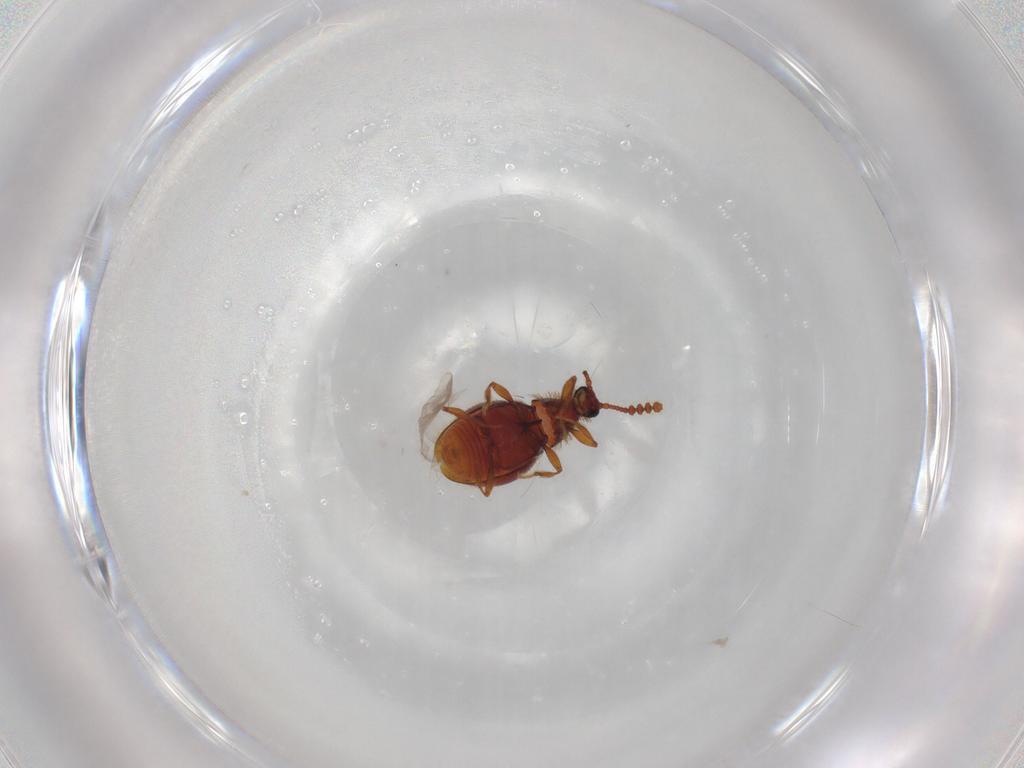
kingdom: Animalia
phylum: Arthropoda
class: Insecta
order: Coleoptera
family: Staphylinidae
